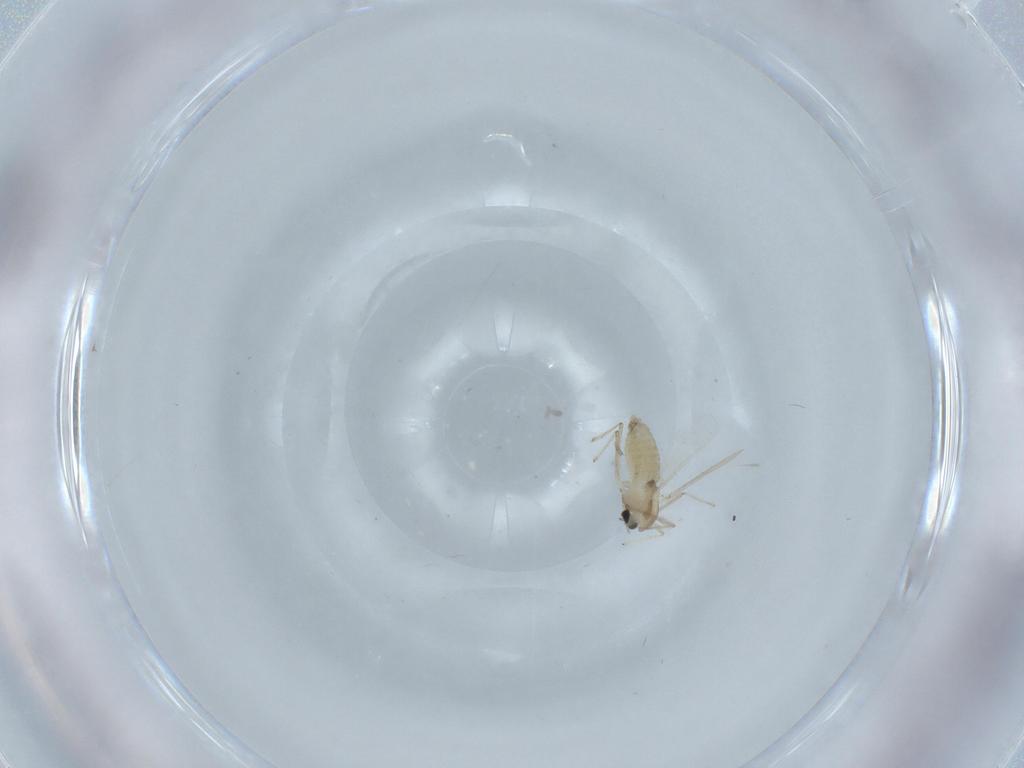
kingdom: Animalia
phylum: Arthropoda
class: Insecta
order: Diptera
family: Chironomidae
